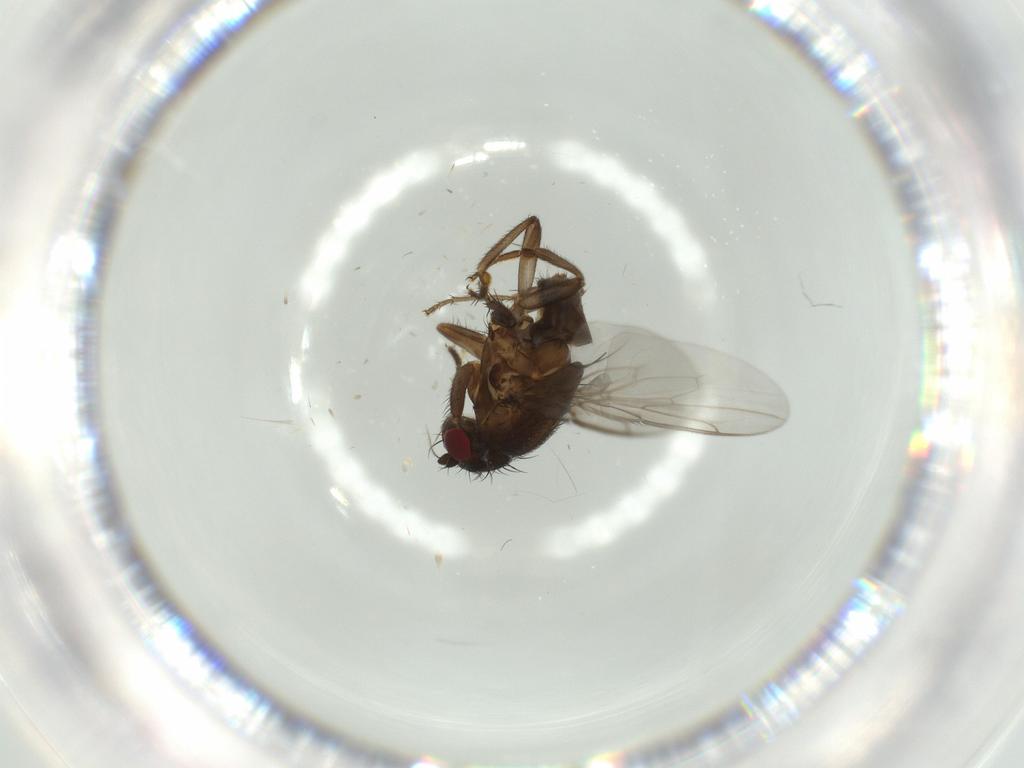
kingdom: Animalia
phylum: Arthropoda
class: Insecta
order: Diptera
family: Sphaeroceridae
